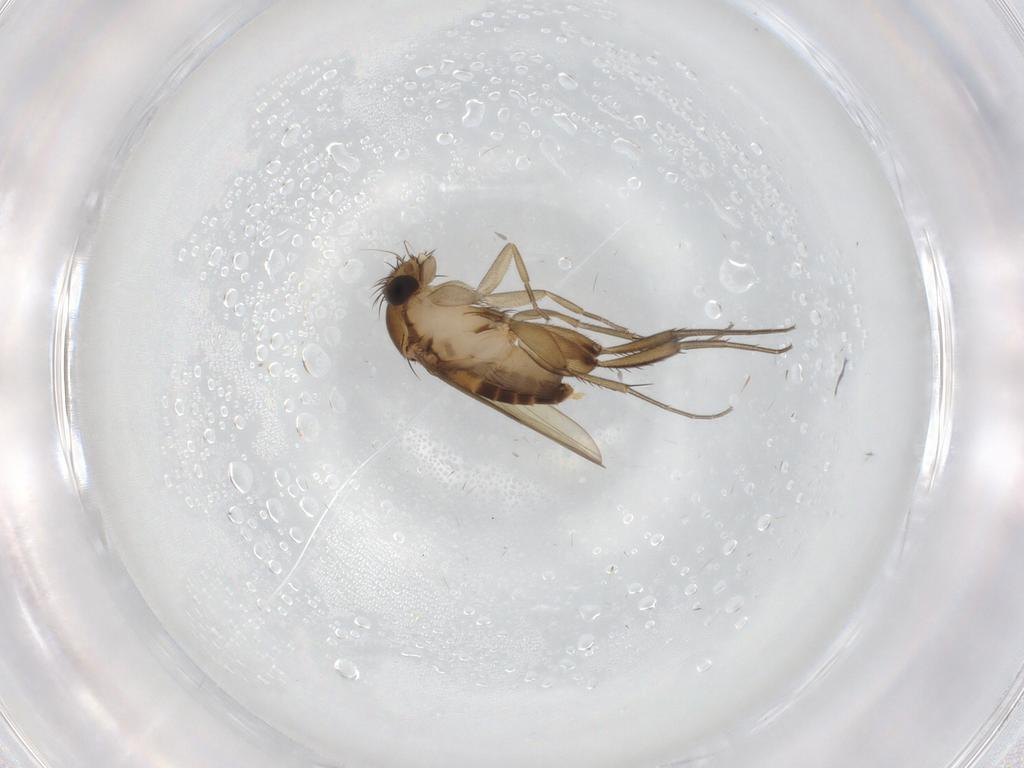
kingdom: Animalia
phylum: Arthropoda
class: Insecta
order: Diptera
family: Phoridae
